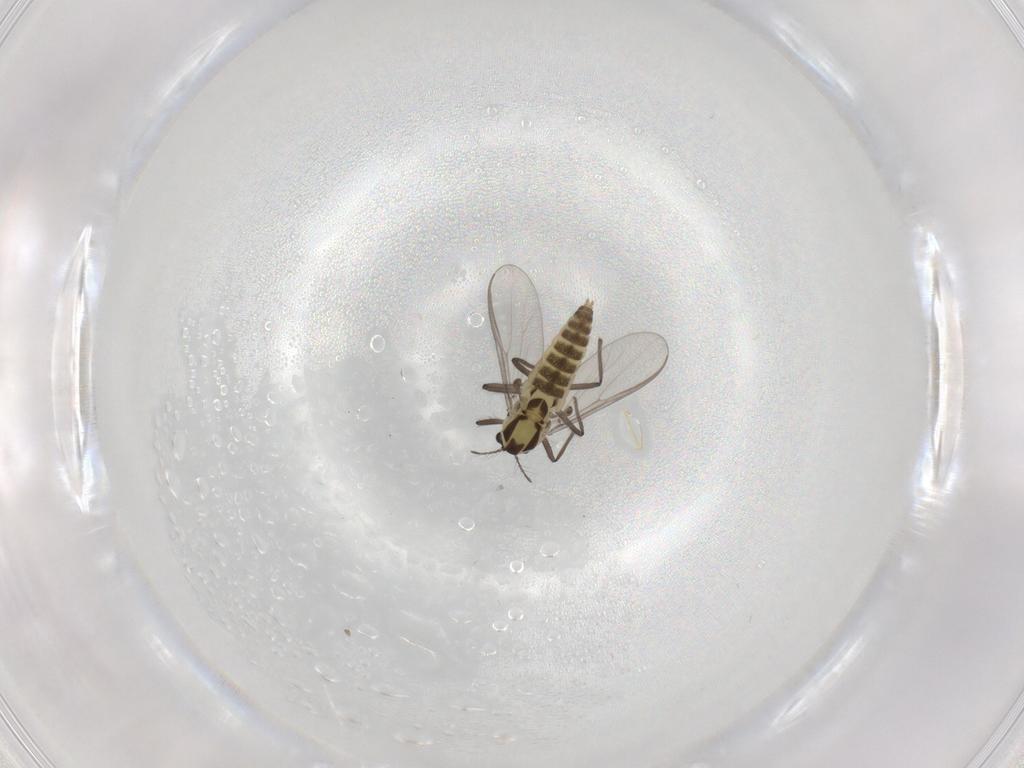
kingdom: Animalia
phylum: Arthropoda
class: Insecta
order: Diptera
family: Chironomidae
